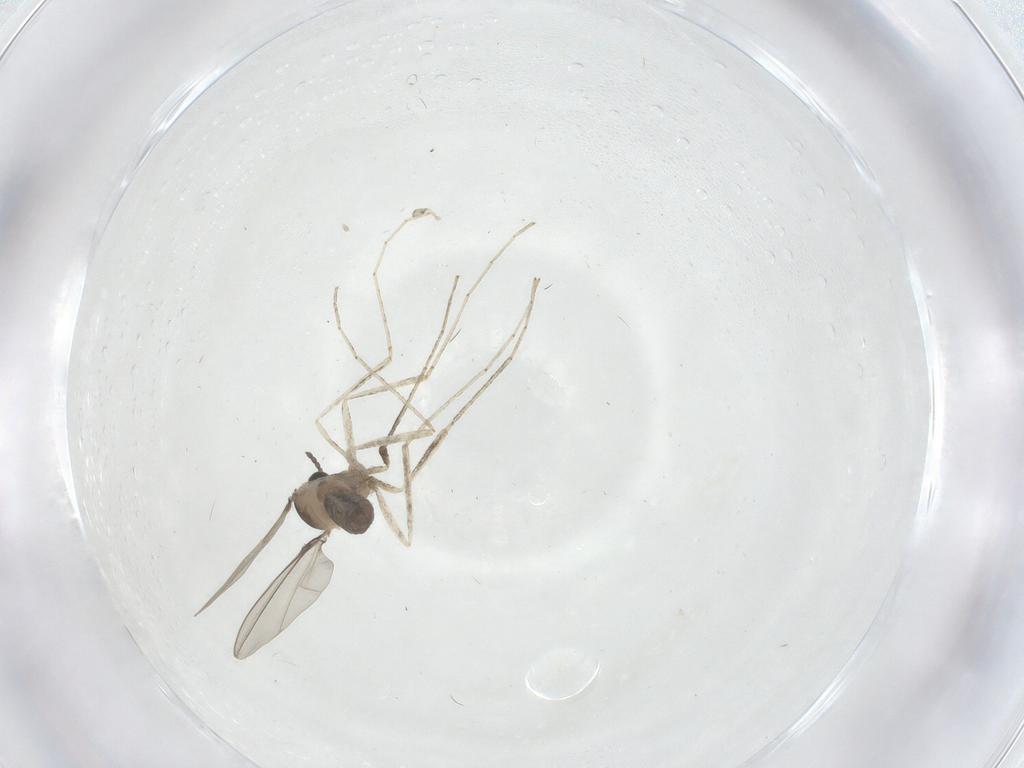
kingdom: Animalia
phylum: Arthropoda
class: Insecta
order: Diptera
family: Cecidomyiidae
